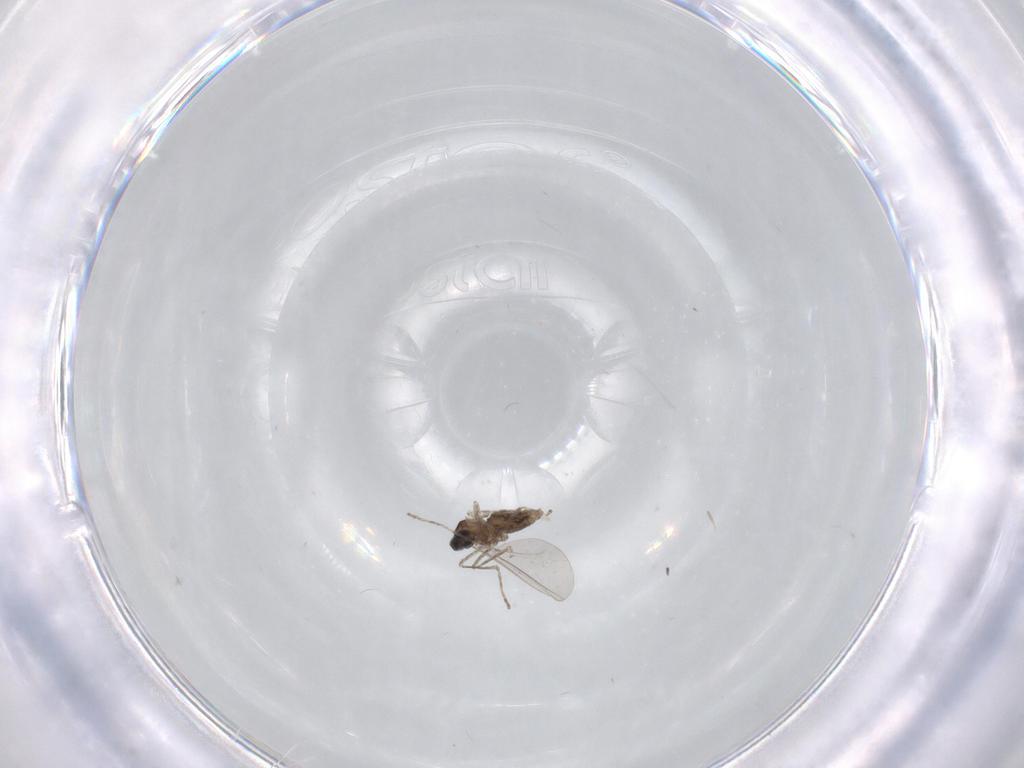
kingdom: Animalia
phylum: Arthropoda
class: Insecta
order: Diptera
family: Cecidomyiidae
